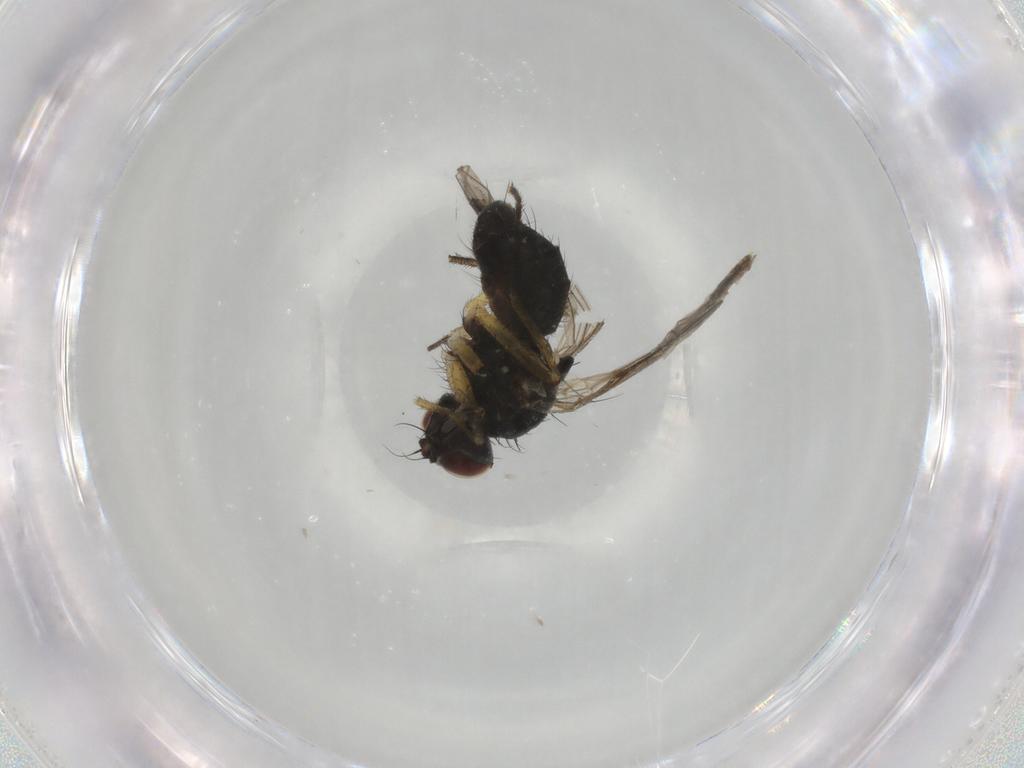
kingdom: Animalia
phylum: Arthropoda
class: Insecta
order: Diptera
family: Muscidae
